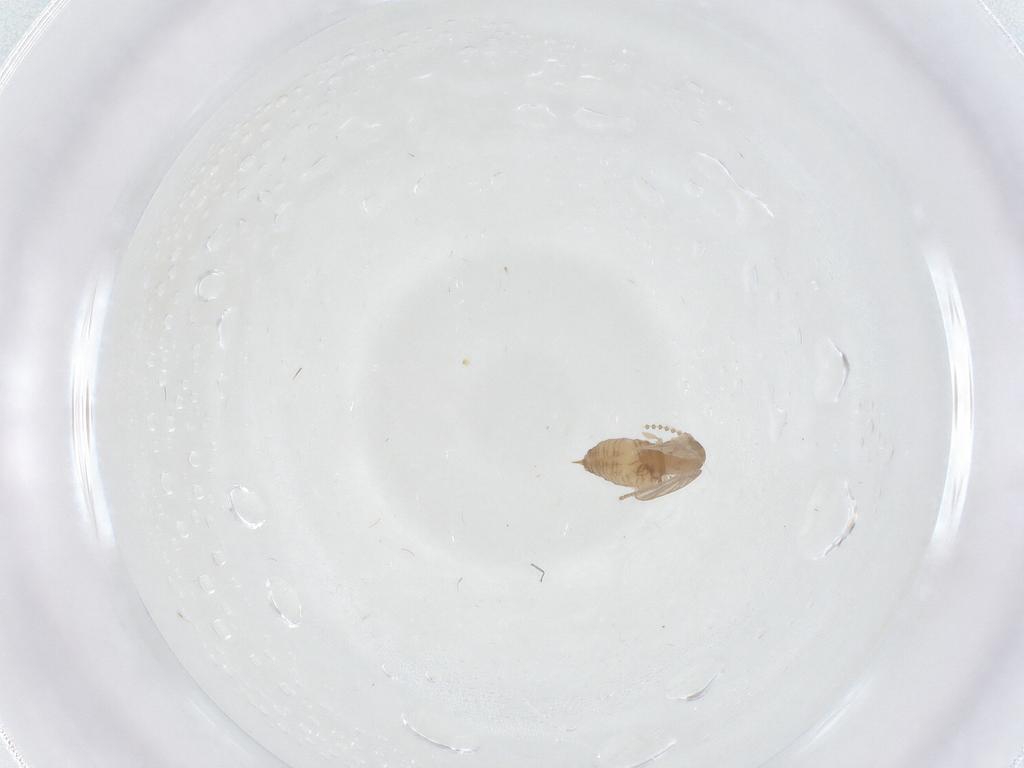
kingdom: Animalia
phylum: Arthropoda
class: Insecta
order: Diptera
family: Psychodidae
